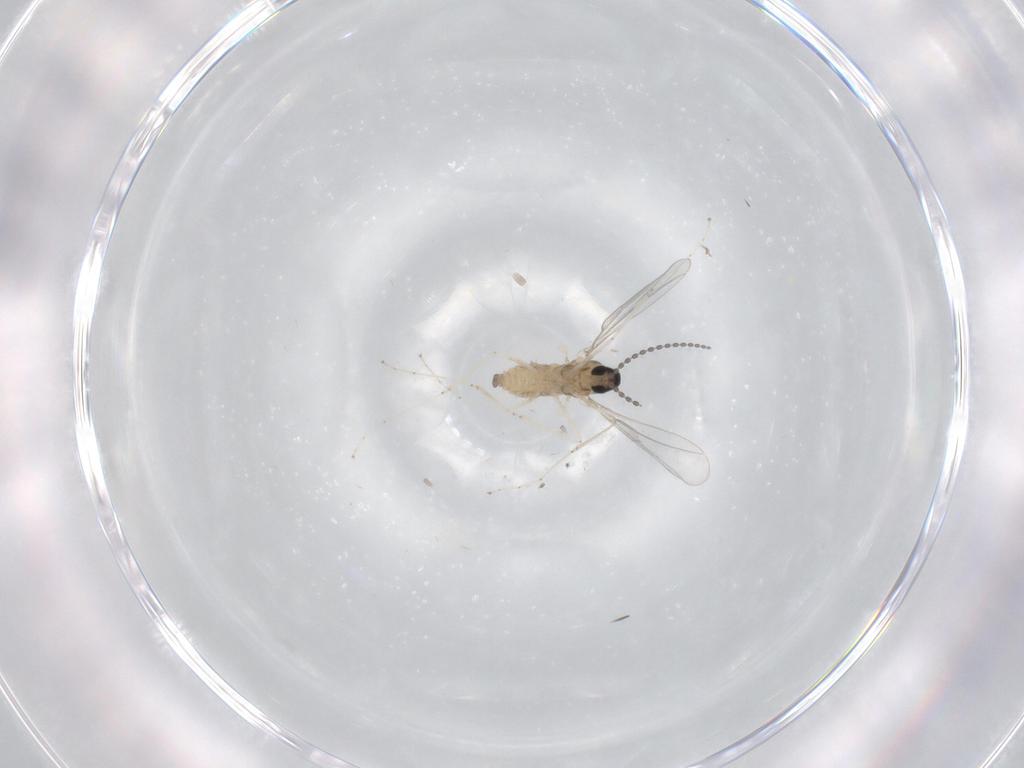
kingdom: Animalia
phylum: Arthropoda
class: Insecta
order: Diptera
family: Cecidomyiidae
